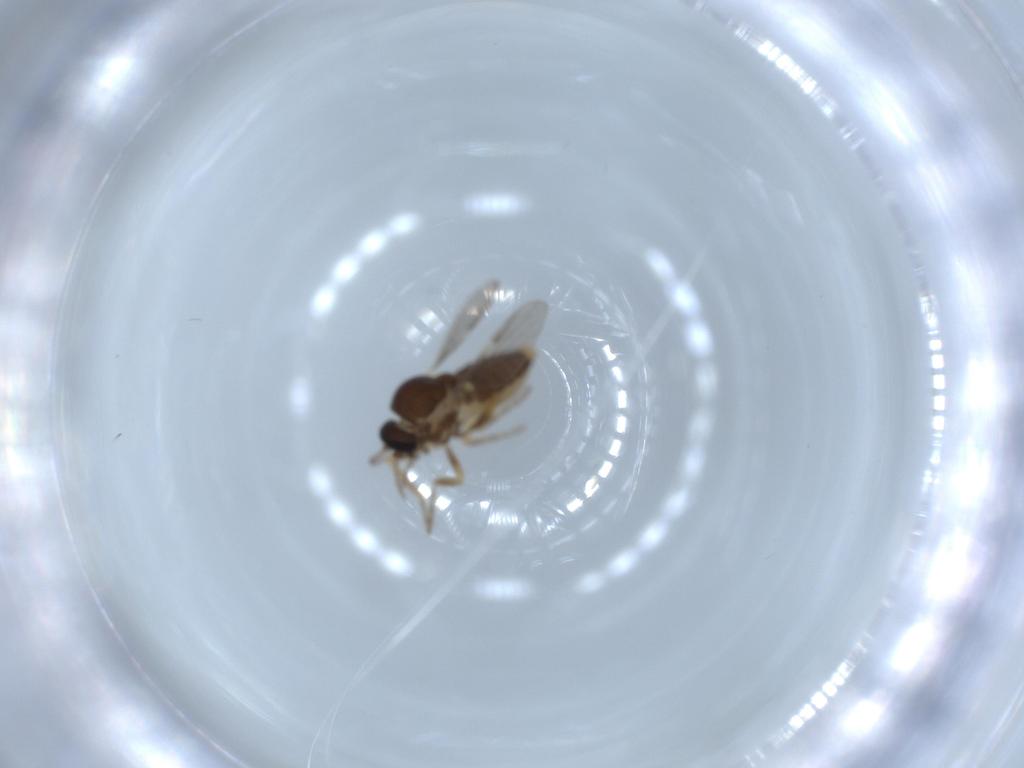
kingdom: Animalia
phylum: Arthropoda
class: Insecta
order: Diptera
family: Ceratopogonidae
